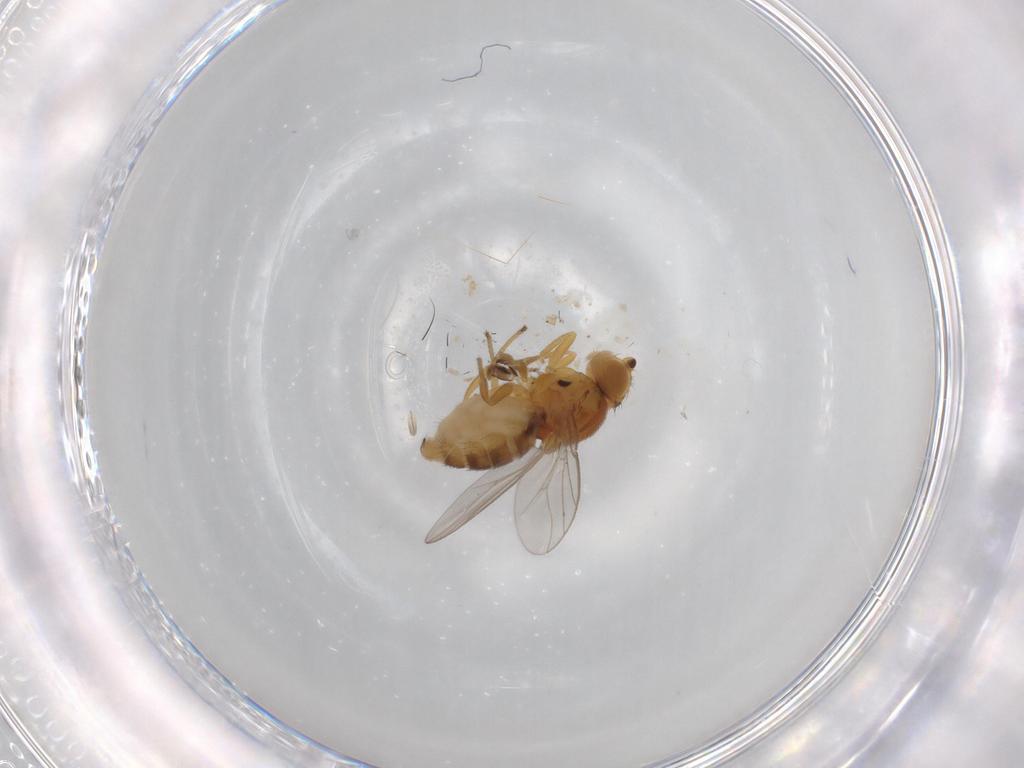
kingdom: Animalia
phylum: Arthropoda
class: Insecta
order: Diptera
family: Chloropidae
